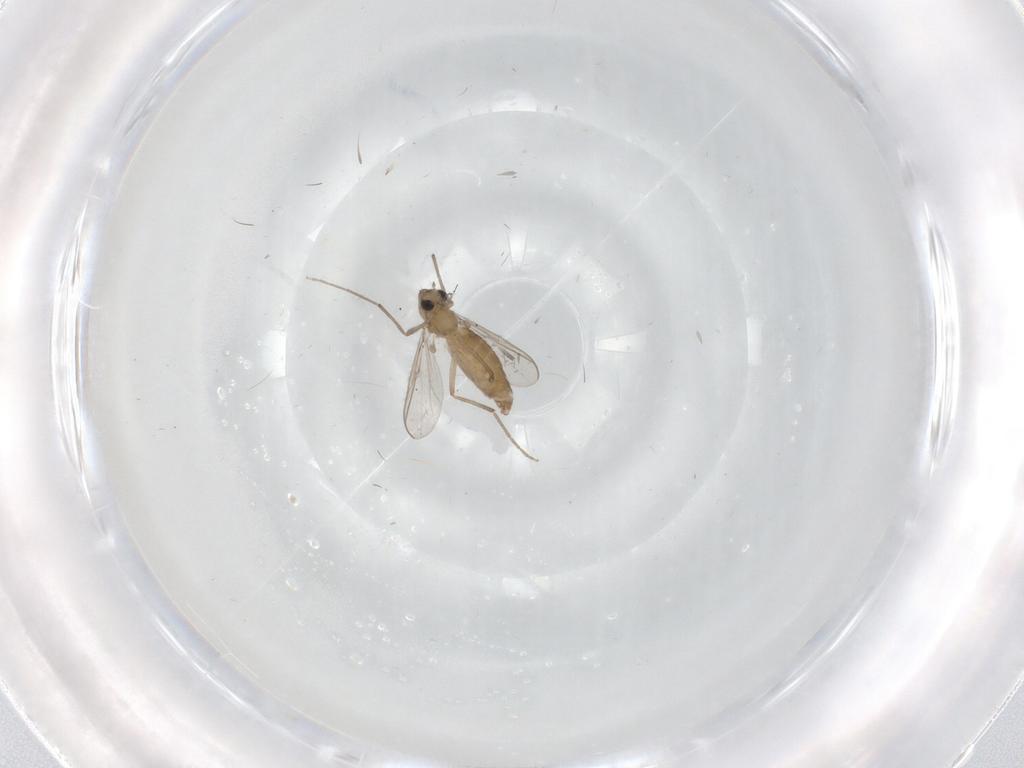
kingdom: Animalia
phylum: Arthropoda
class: Insecta
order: Diptera
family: Chironomidae
